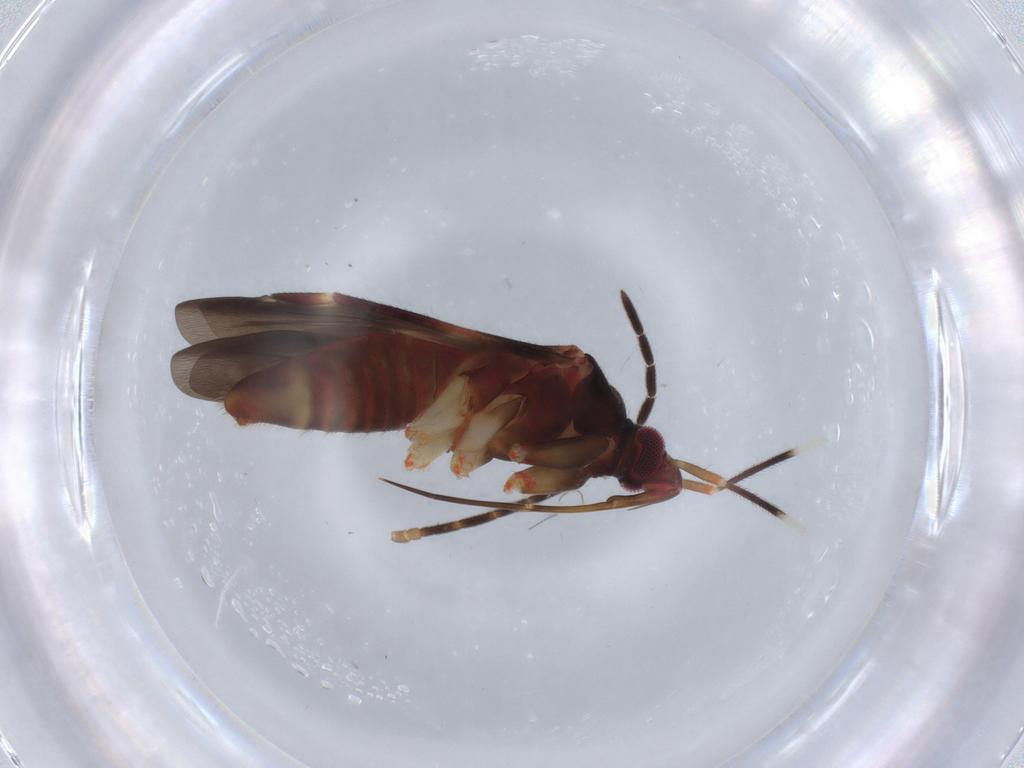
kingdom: Animalia
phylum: Arthropoda
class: Insecta
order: Hemiptera
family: Miridae
